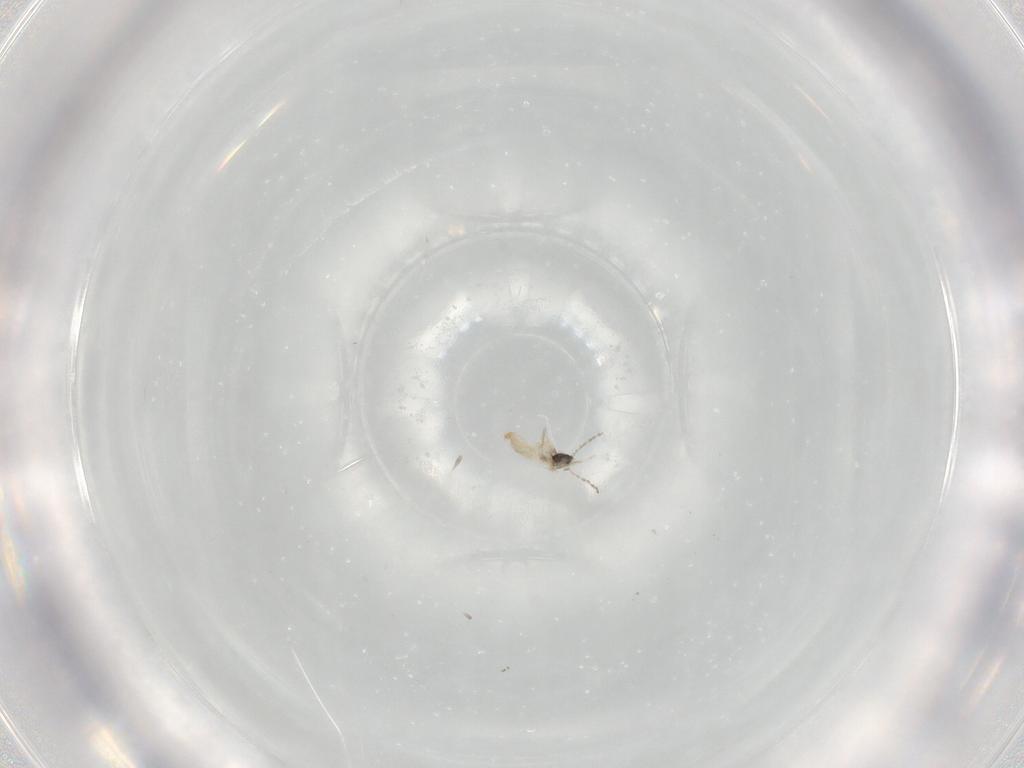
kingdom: Animalia
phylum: Arthropoda
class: Insecta
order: Diptera
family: Cecidomyiidae
